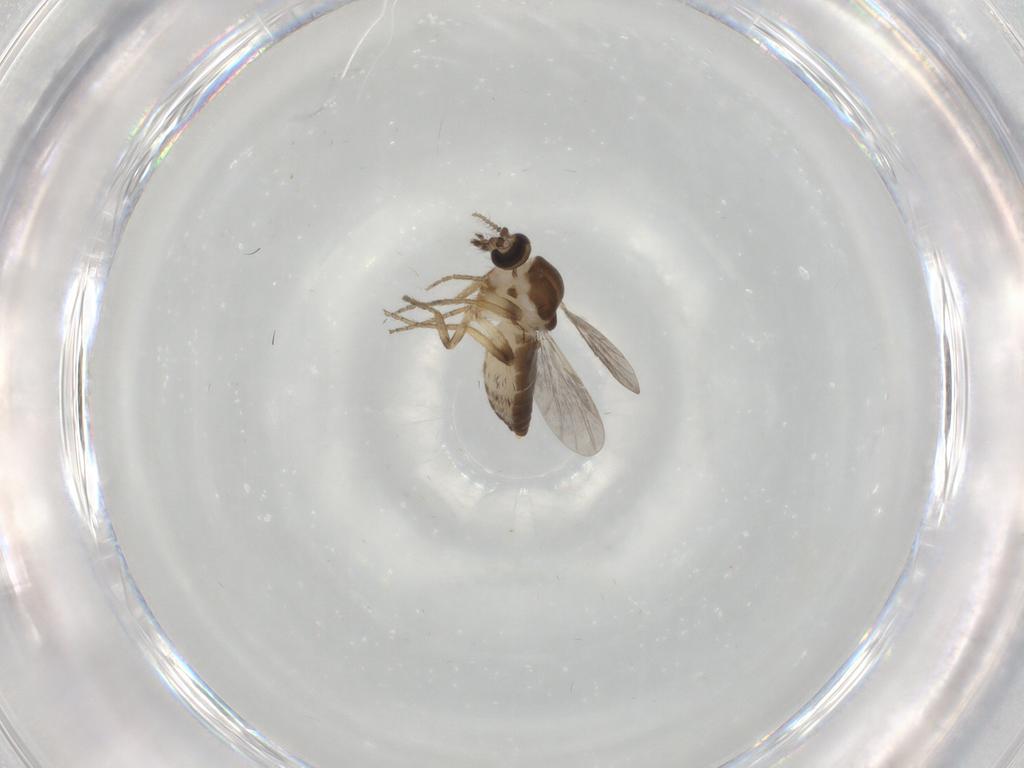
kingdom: Animalia
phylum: Arthropoda
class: Insecta
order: Diptera
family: Ceratopogonidae
